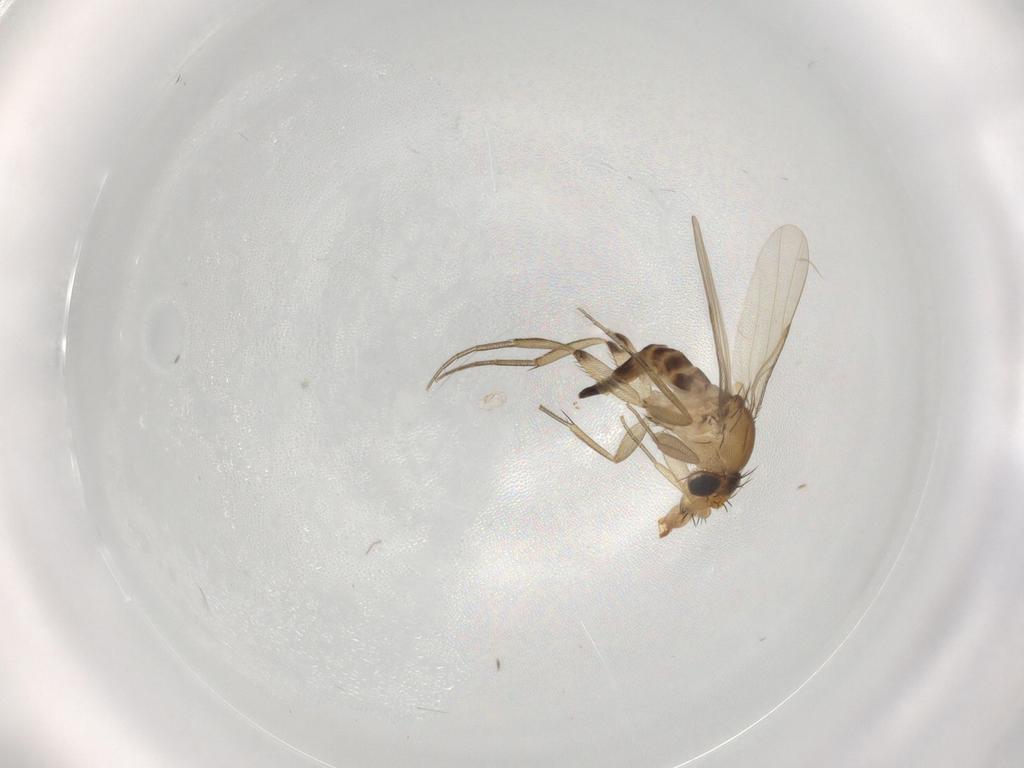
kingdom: Animalia
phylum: Arthropoda
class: Insecta
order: Diptera
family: Phoridae
